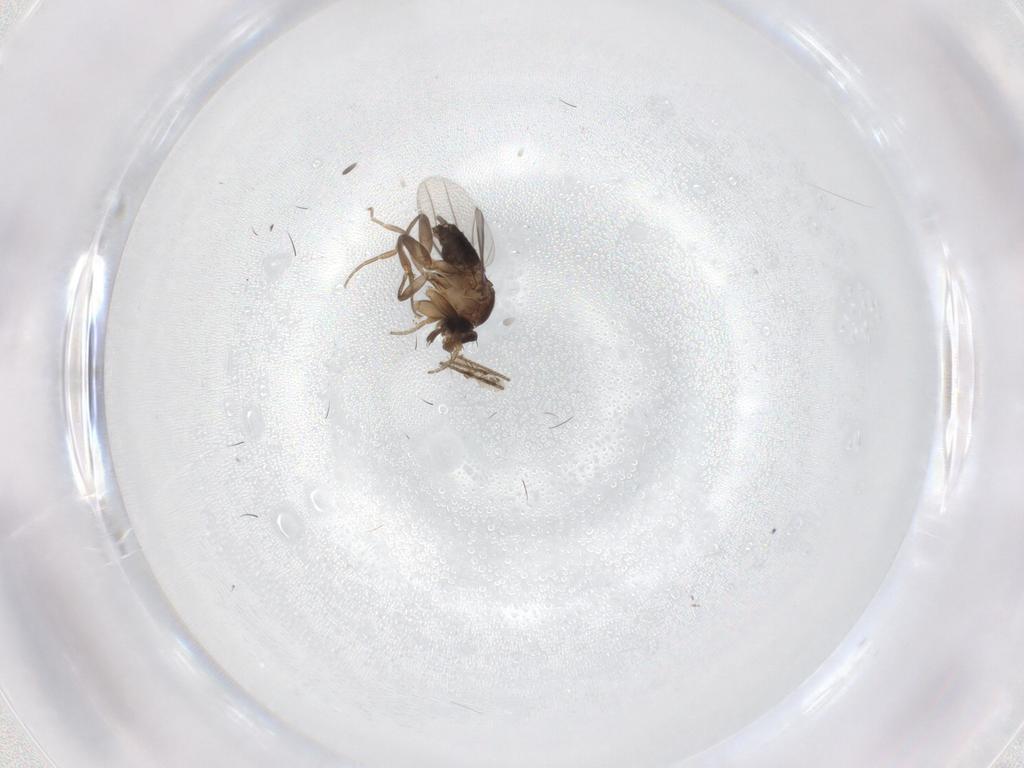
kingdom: Animalia
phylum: Arthropoda
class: Insecta
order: Diptera
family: Phoridae
